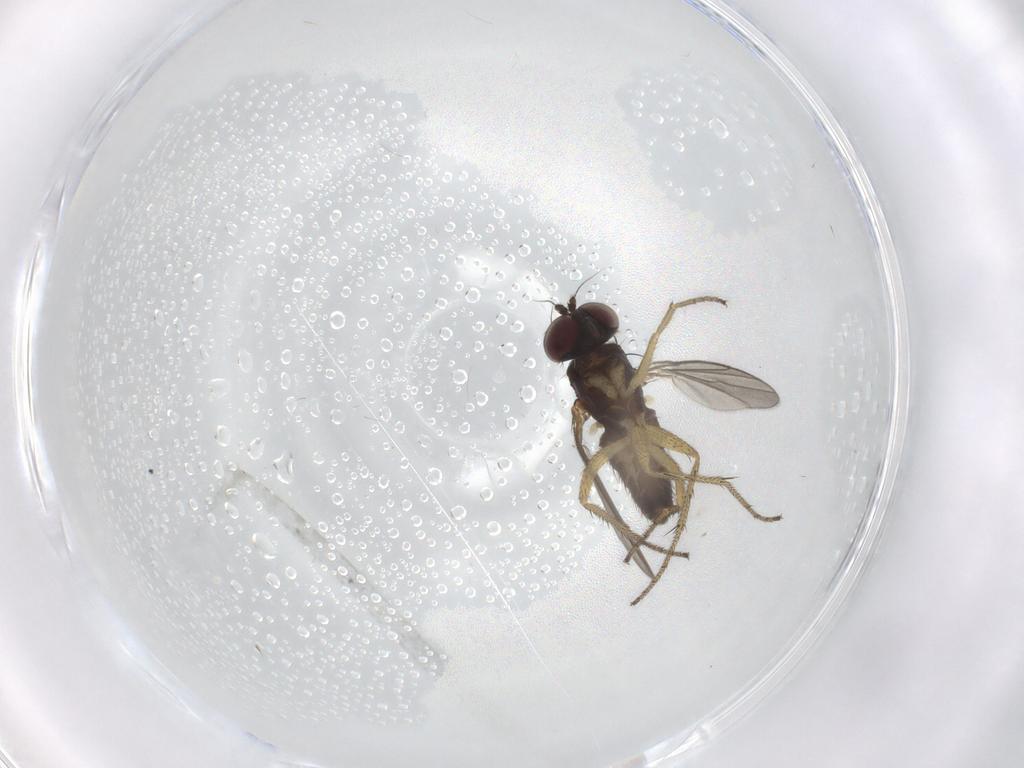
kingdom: Animalia
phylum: Arthropoda
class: Insecta
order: Diptera
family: Dolichopodidae
